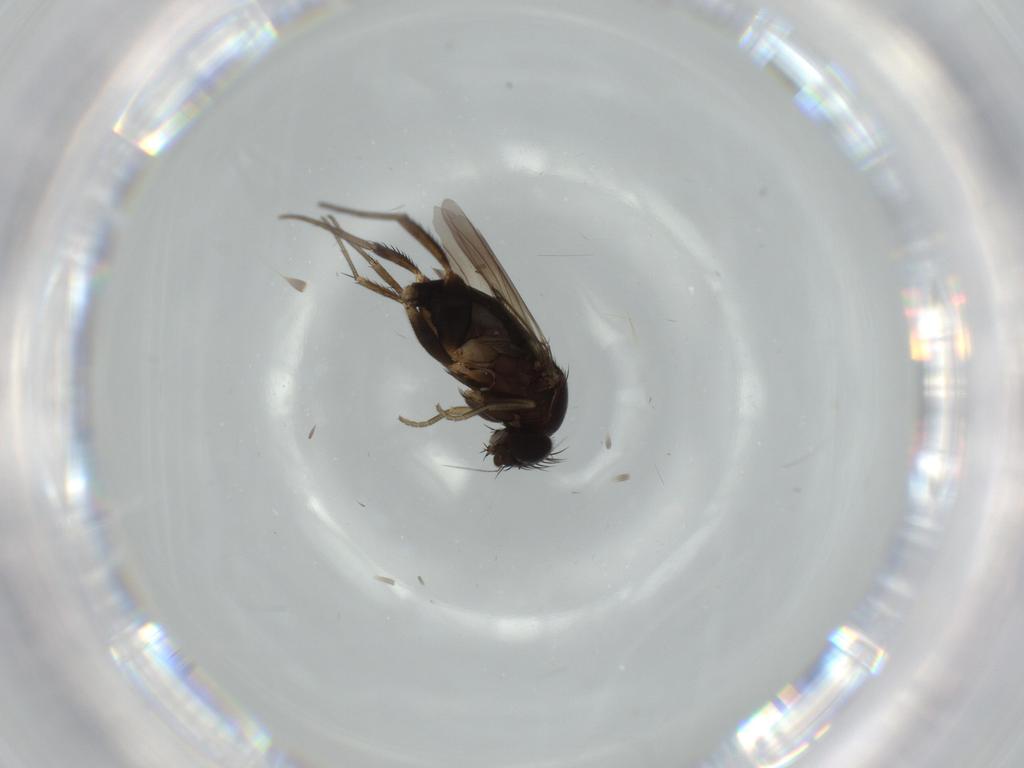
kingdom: Animalia
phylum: Arthropoda
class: Insecta
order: Diptera
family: Phoridae
